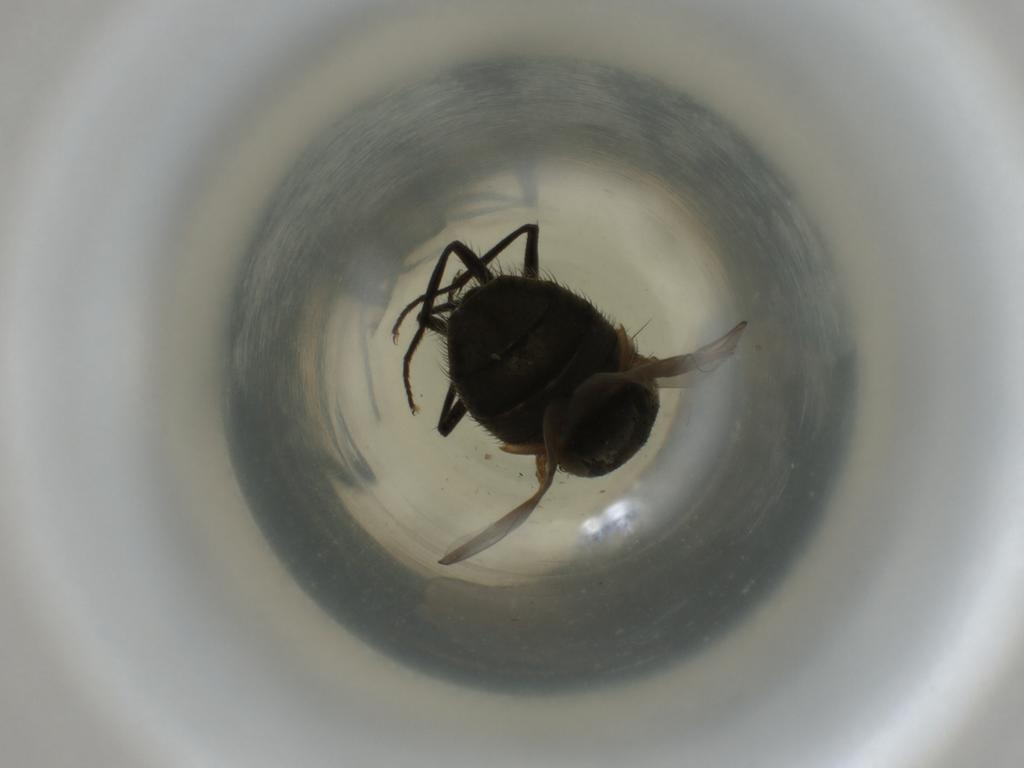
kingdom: Animalia
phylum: Arthropoda
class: Insecta
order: Diptera
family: Muscidae
